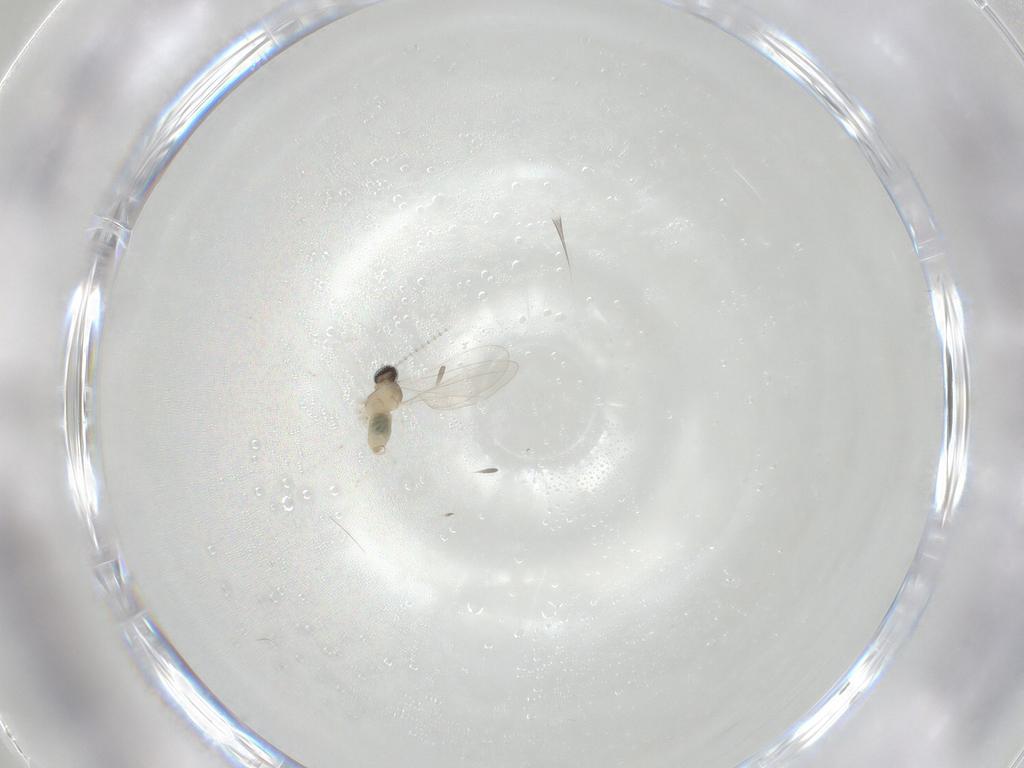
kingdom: Animalia
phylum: Arthropoda
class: Insecta
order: Diptera
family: Cecidomyiidae
